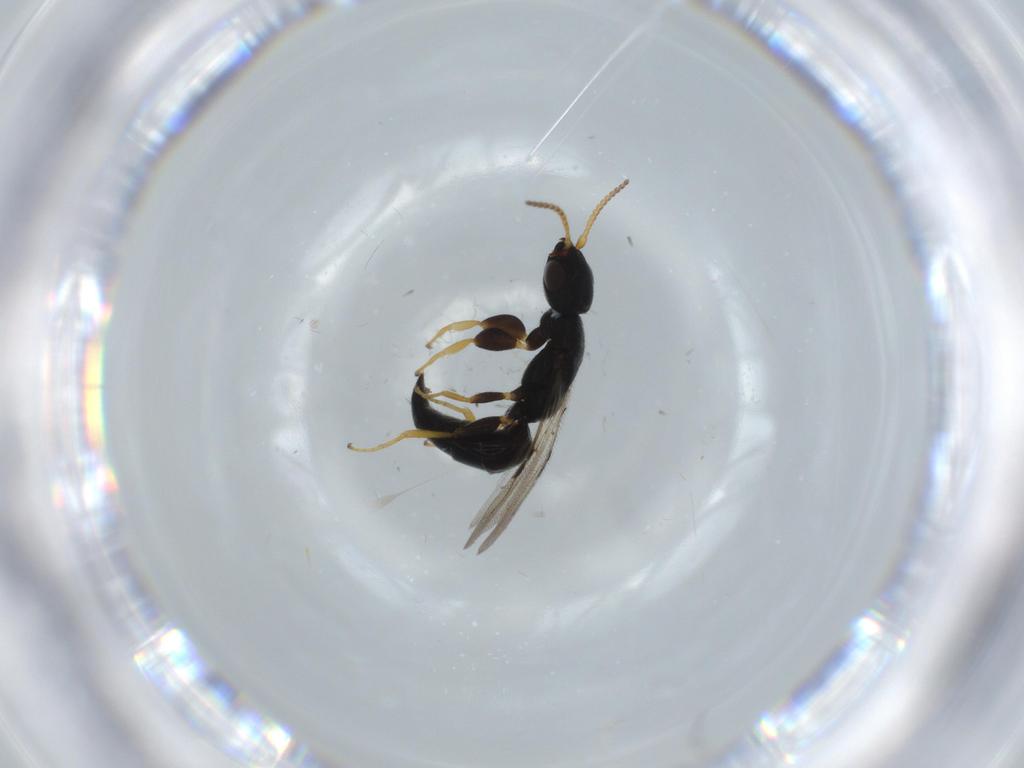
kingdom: Animalia
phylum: Arthropoda
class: Insecta
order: Hymenoptera
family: Bethylidae
